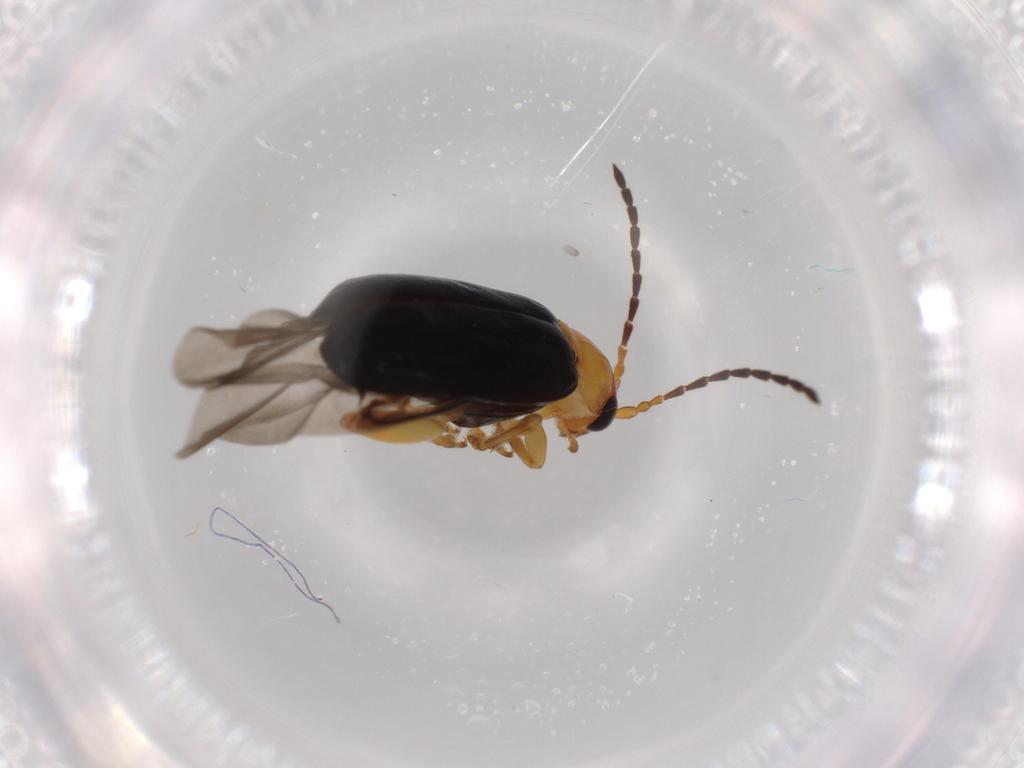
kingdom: Animalia
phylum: Arthropoda
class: Insecta
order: Coleoptera
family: Chrysomelidae
